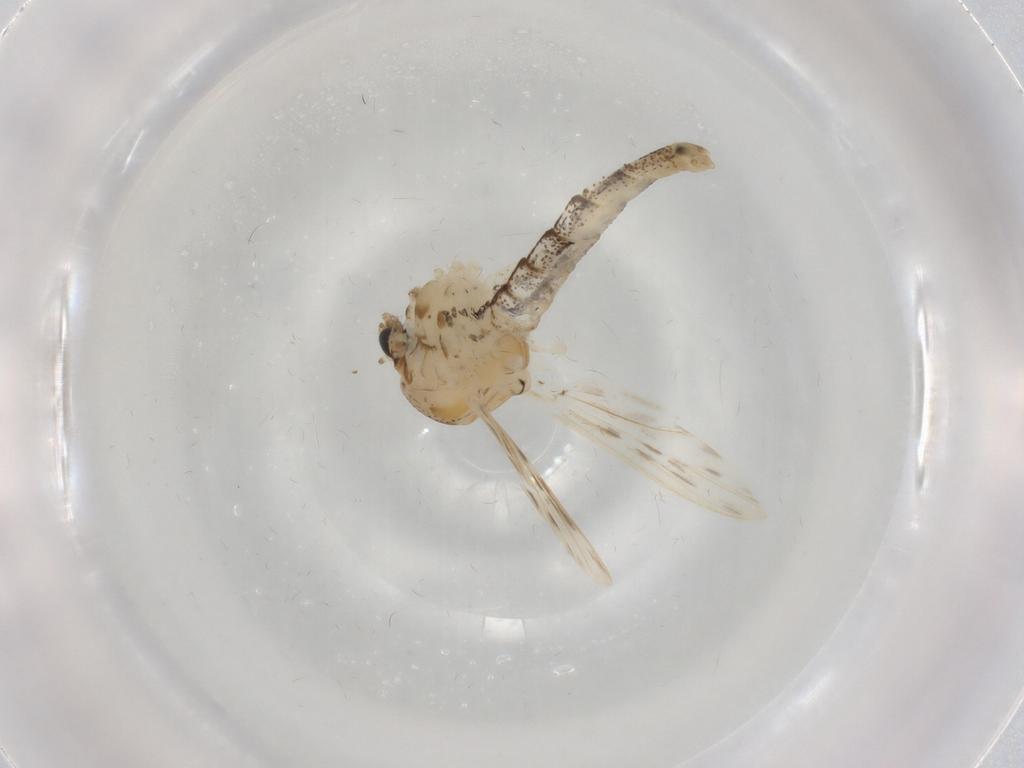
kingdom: Animalia
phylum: Arthropoda
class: Insecta
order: Diptera
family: Chaoboridae
